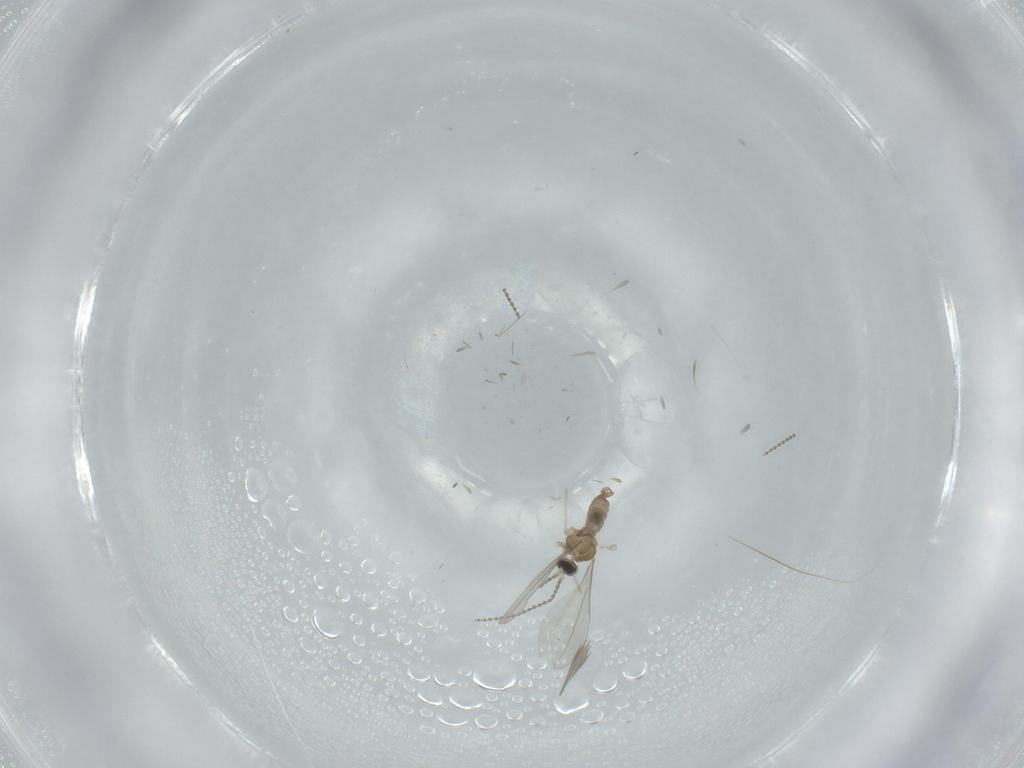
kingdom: Animalia
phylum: Arthropoda
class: Insecta
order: Diptera
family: Cecidomyiidae
